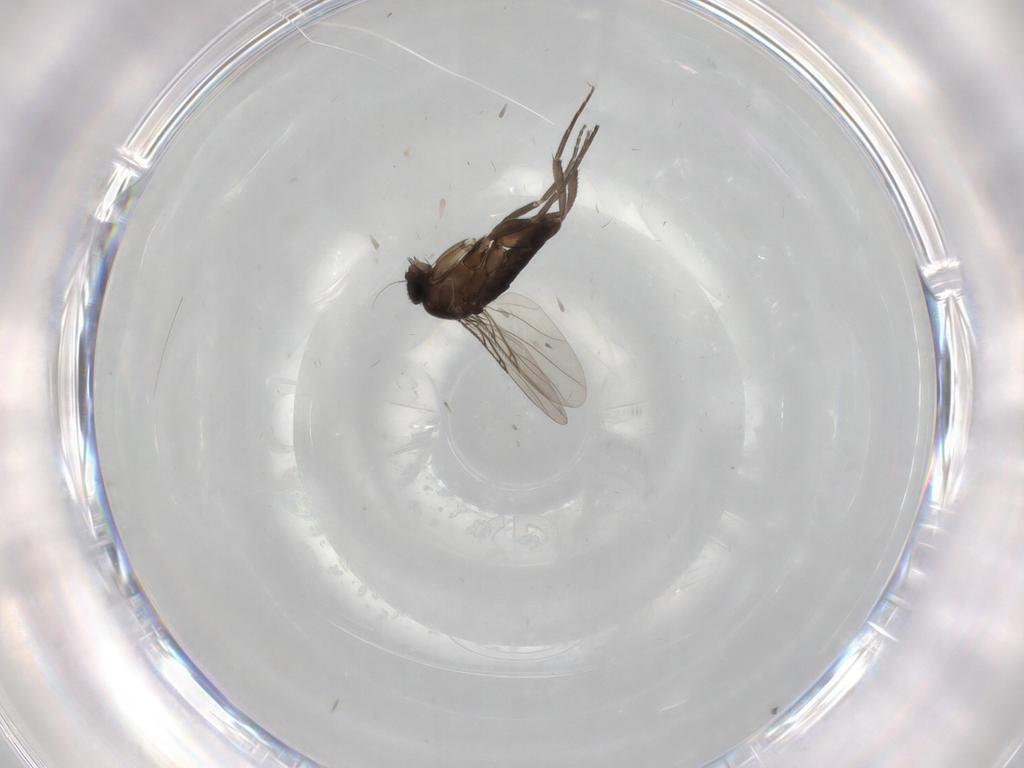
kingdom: Animalia
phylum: Arthropoda
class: Insecta
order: Diptera
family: Phoridae
